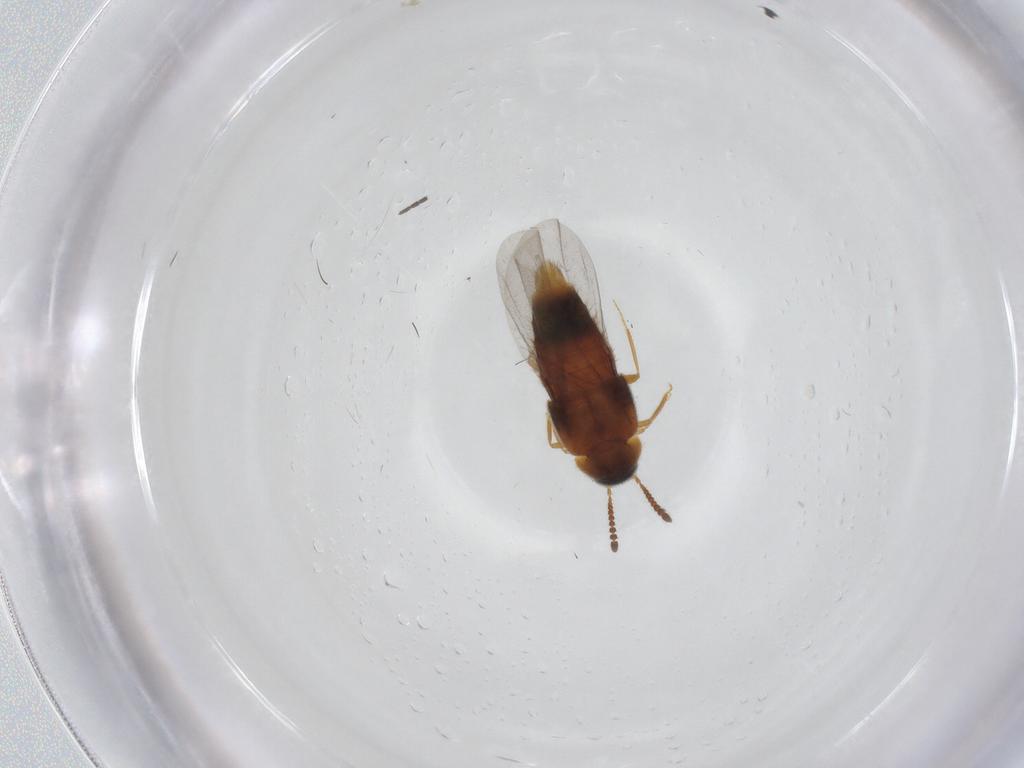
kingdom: Animalia
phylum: Arthropoda
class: Insecta
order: Coleoptera
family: Staphylinidae
